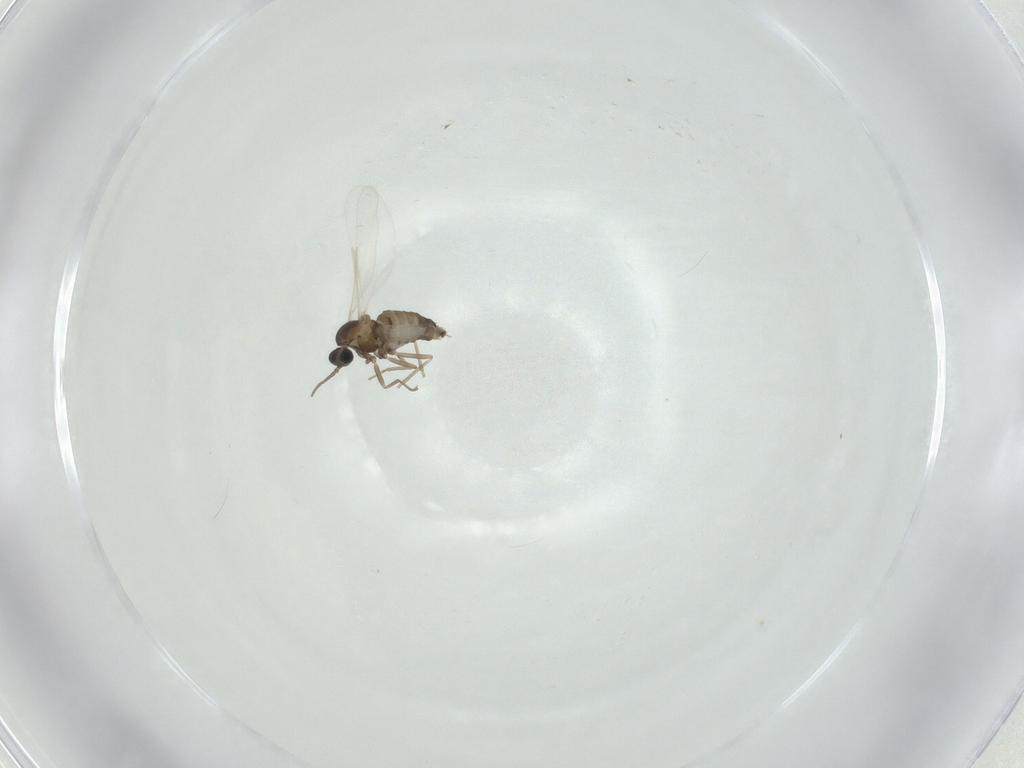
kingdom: Animalia
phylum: Arthropoda
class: Insecta
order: Diptera
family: Cecidomyiidae
